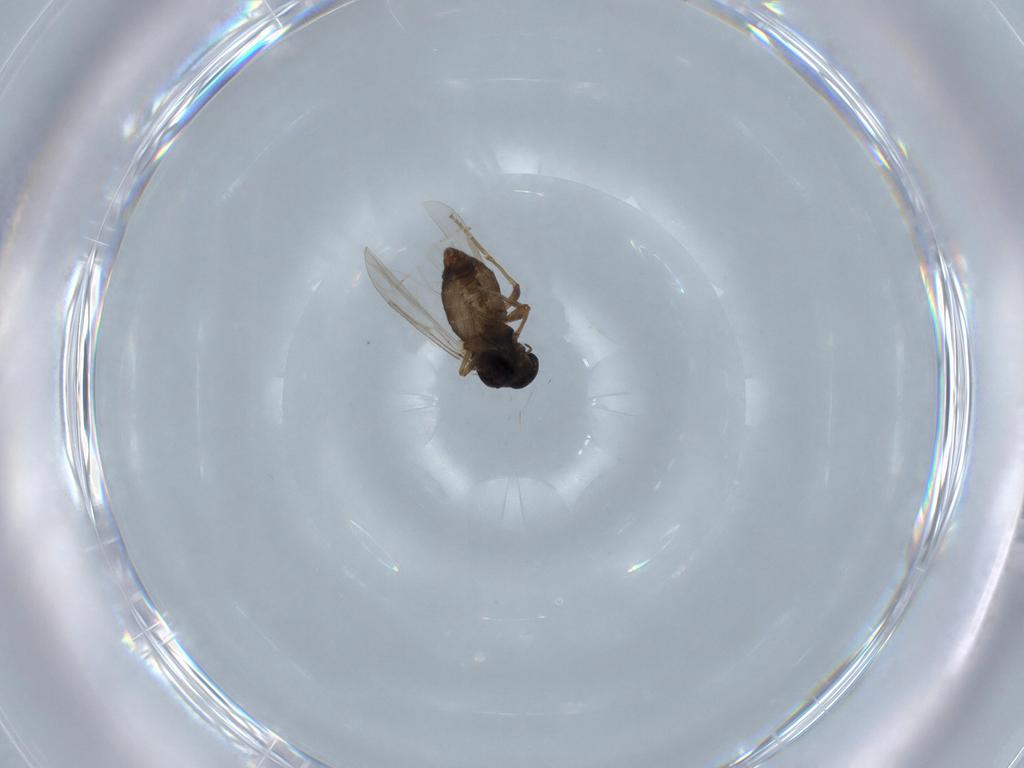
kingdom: Animalia
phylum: Arthropoda
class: Insecta
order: Diptera
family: Ceratopogonidae
